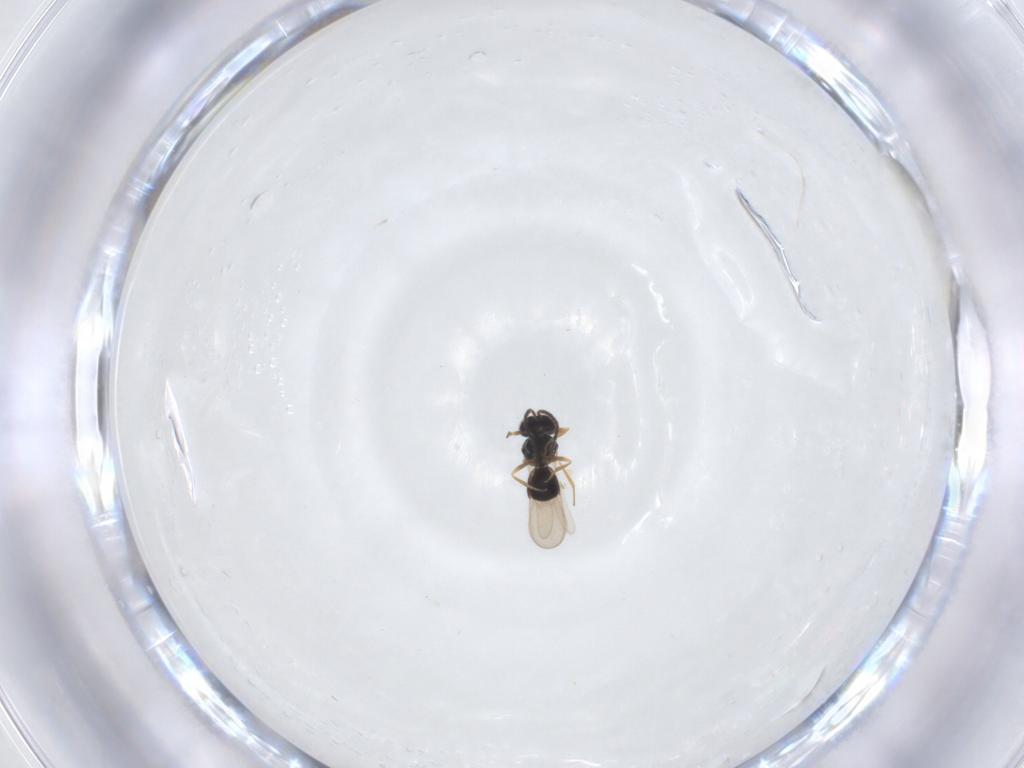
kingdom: Animalia
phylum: Arthropoda
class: Insecta
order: Hymenoptera
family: Scelionidae
